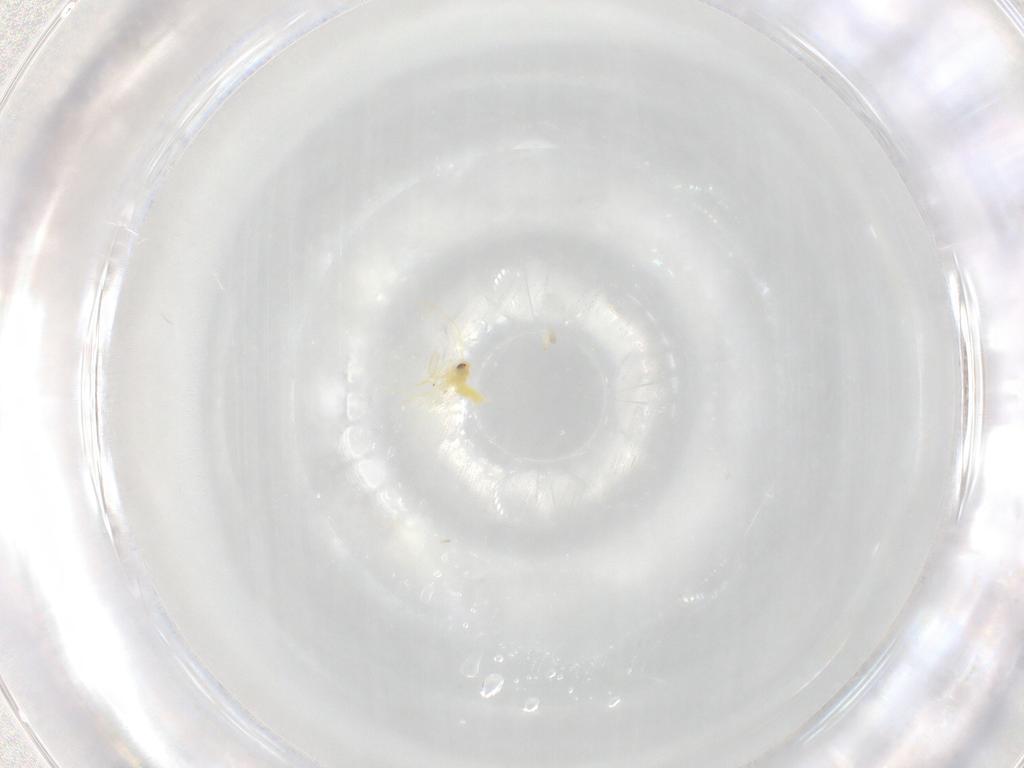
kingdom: Animalia
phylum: Arthropoda
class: Insecta
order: Hemiptera
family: Aleyrodidae
